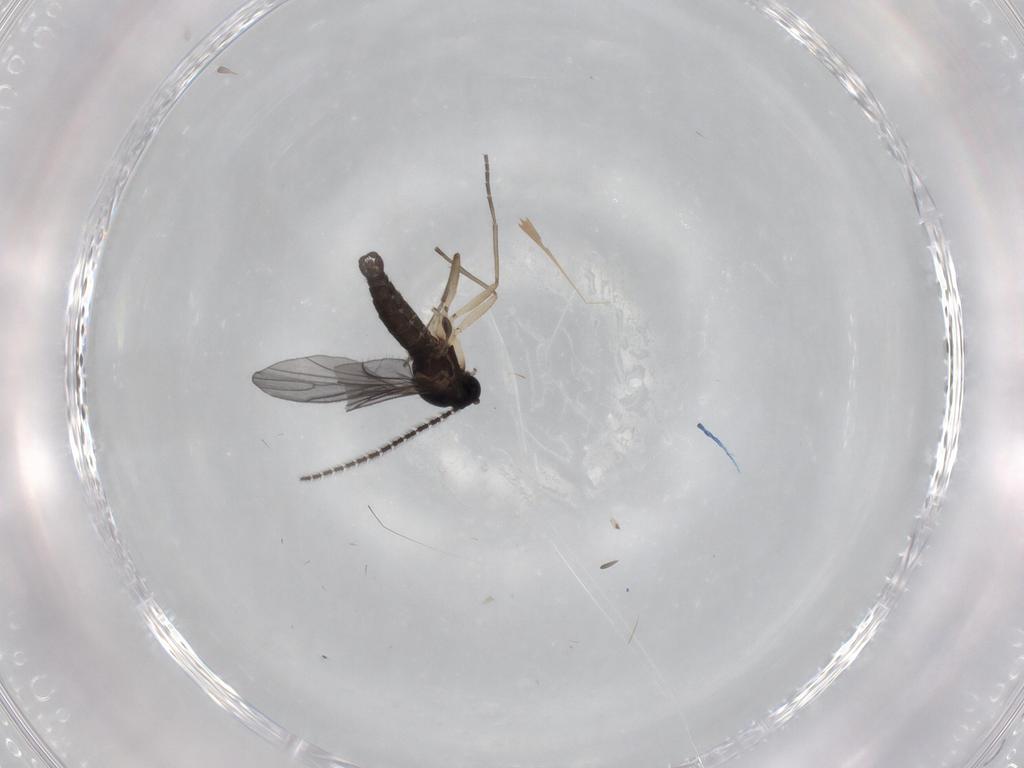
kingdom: Animalia
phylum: Arthropoda
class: Insecta
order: Diptera
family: Sciaridae
